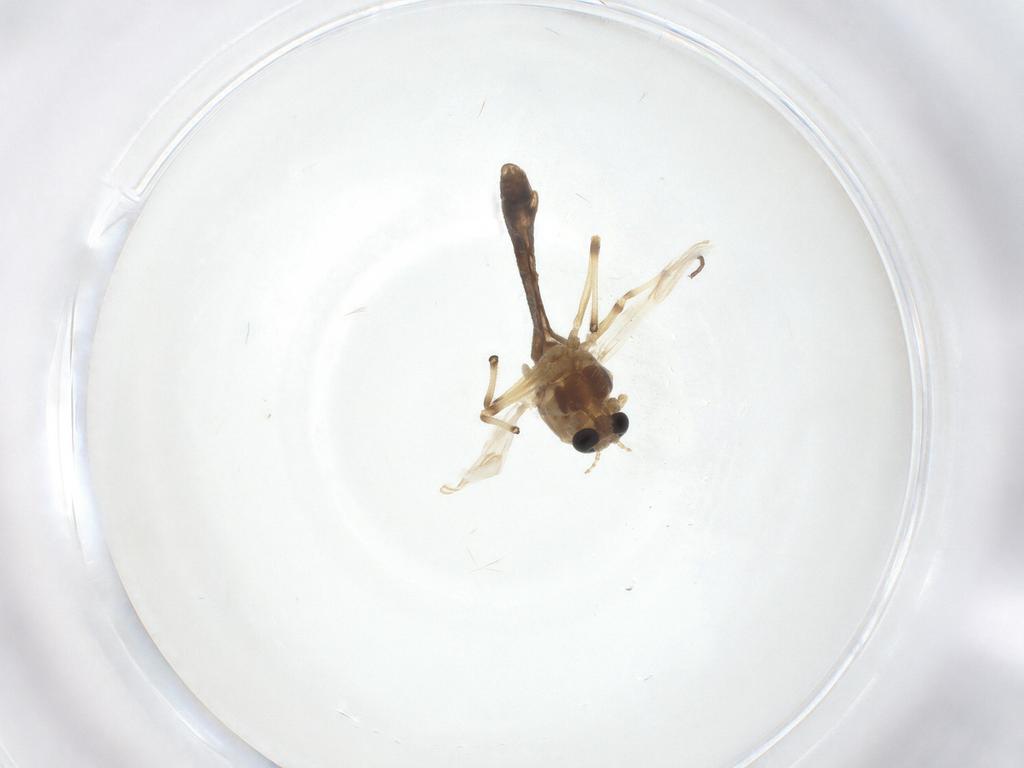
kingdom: Animalia
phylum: Arthropoda
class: Insecta
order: Diptera
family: Chironomidae
